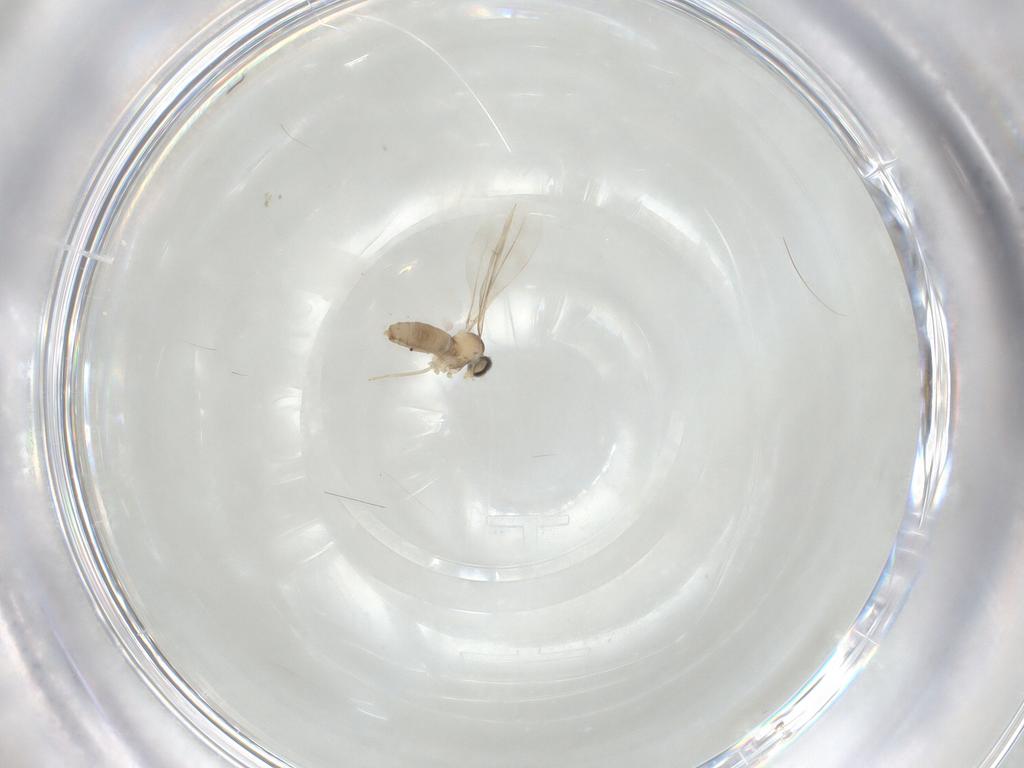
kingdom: Animalia
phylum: Arthropoda
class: Insecta
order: Diptera
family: Cecidomyiidae
